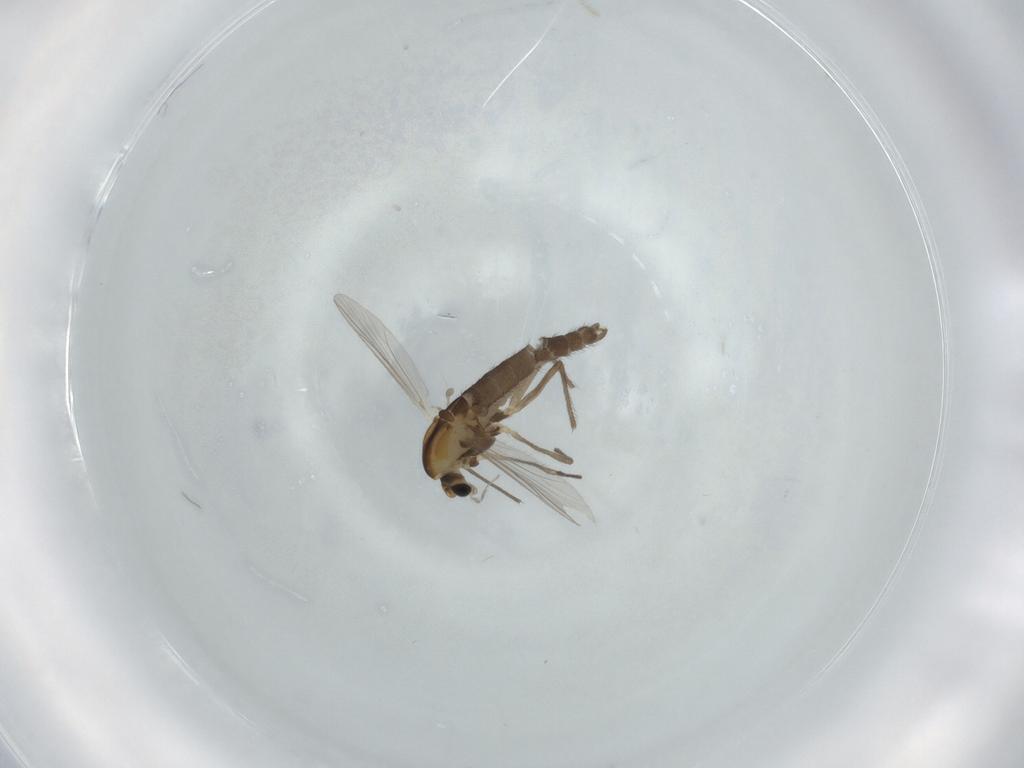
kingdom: Animalia
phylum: Arthropoda
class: Insecta
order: Diptera
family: Chironomidae
